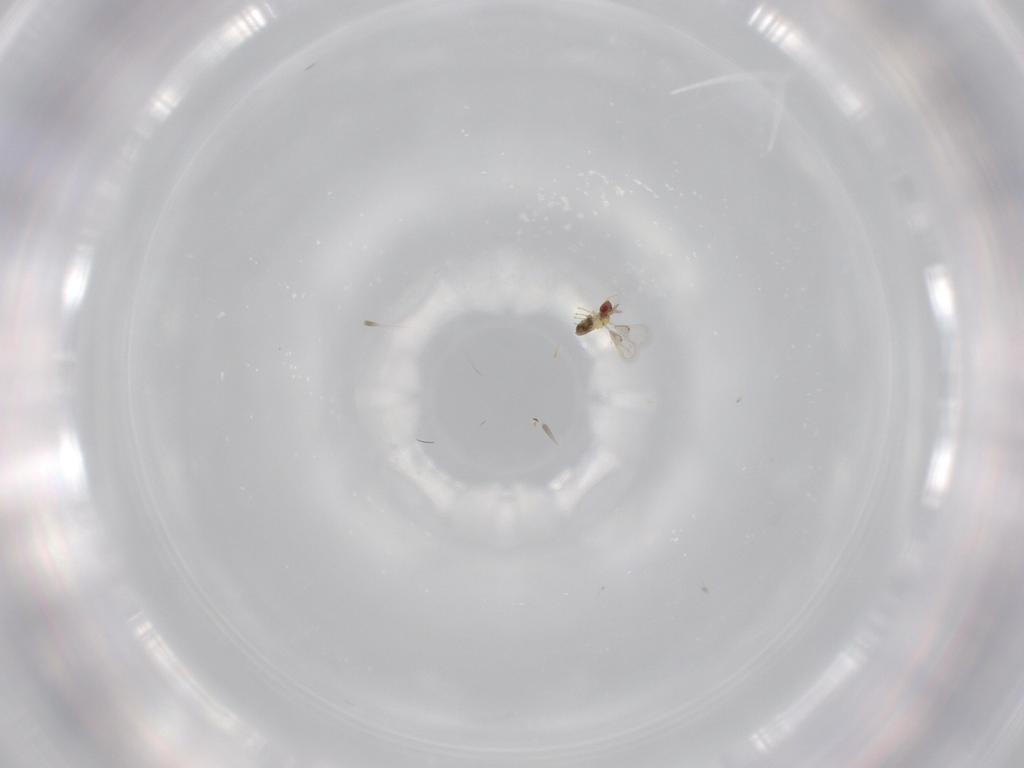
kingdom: Animalia
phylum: Arthropoda
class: Insecta
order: Hymenoptera
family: Trichogrammatidae
